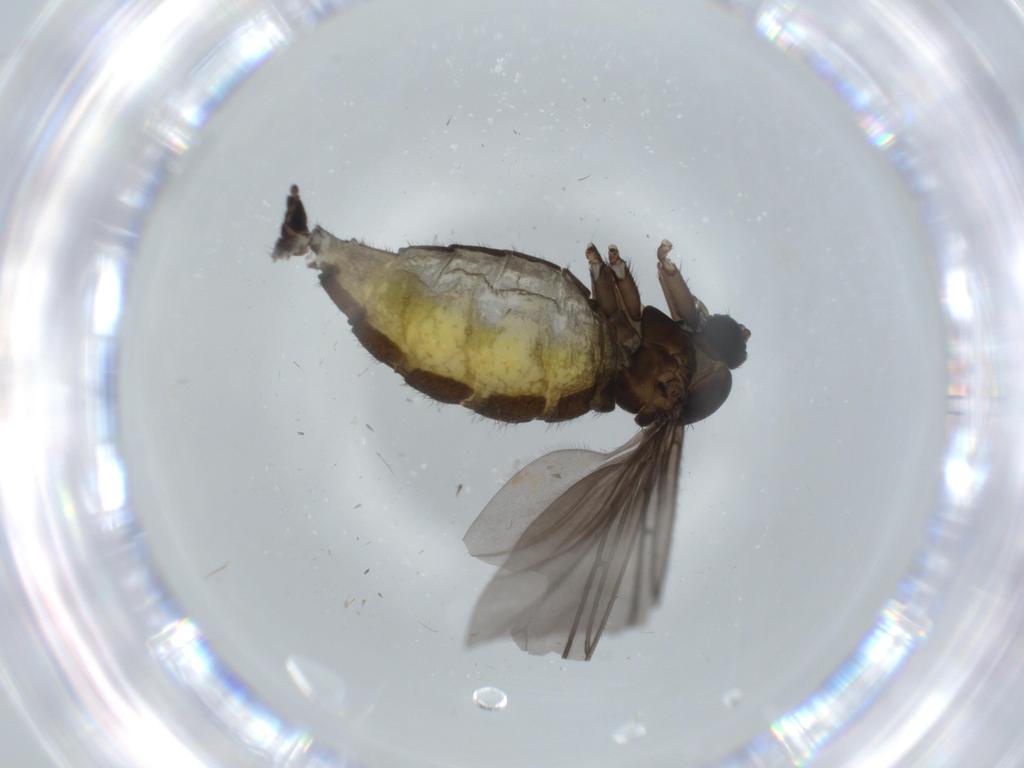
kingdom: Animalia
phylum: Arthropoda
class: Insecta
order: Diptera
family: Sciaridae
